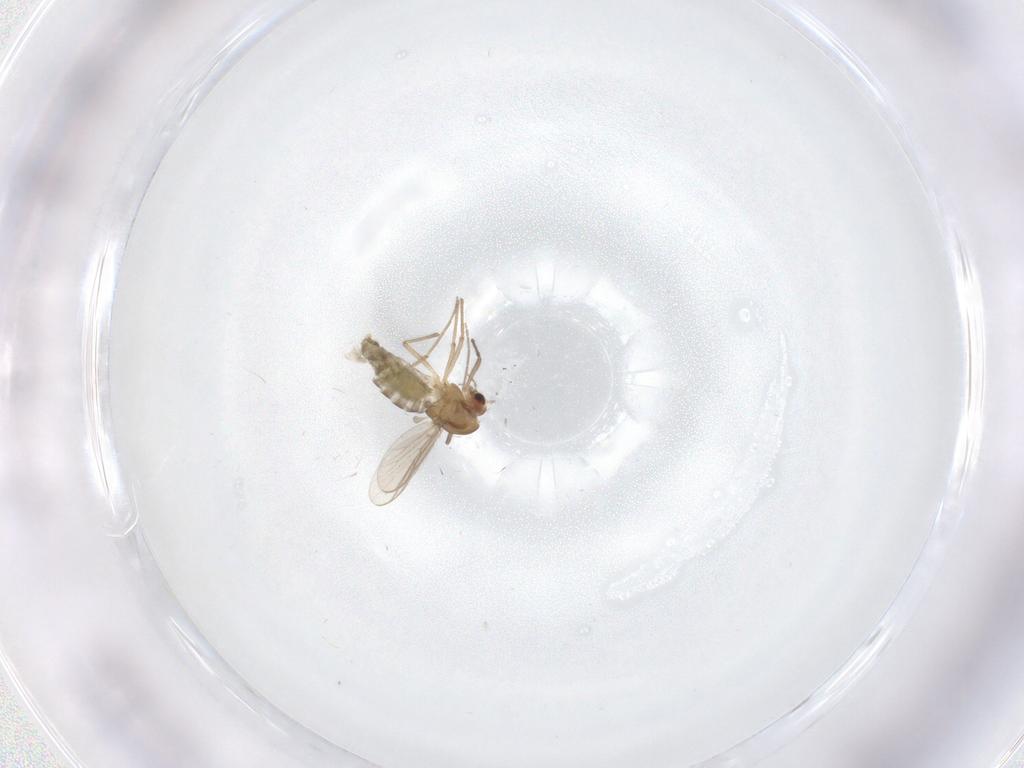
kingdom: Animalia
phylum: Arthropoda
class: Insecta
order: Diptera
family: Chironomidae
